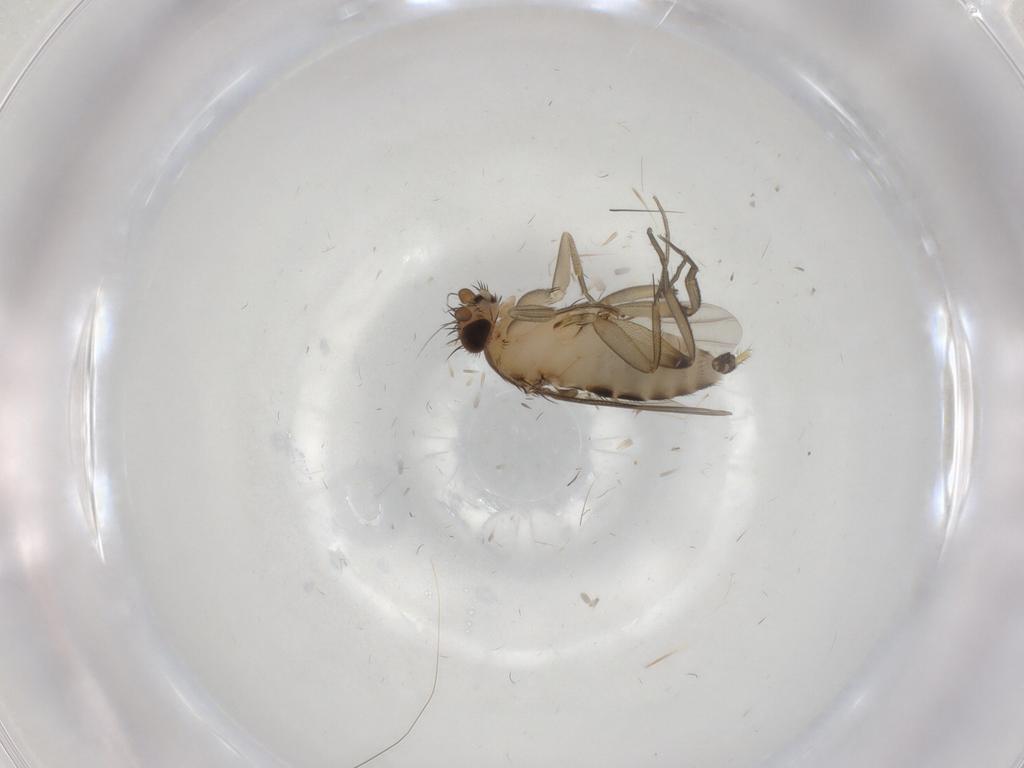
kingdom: Animalia
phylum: Arthropoda
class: Insecta
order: Diptera
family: Phoridae
